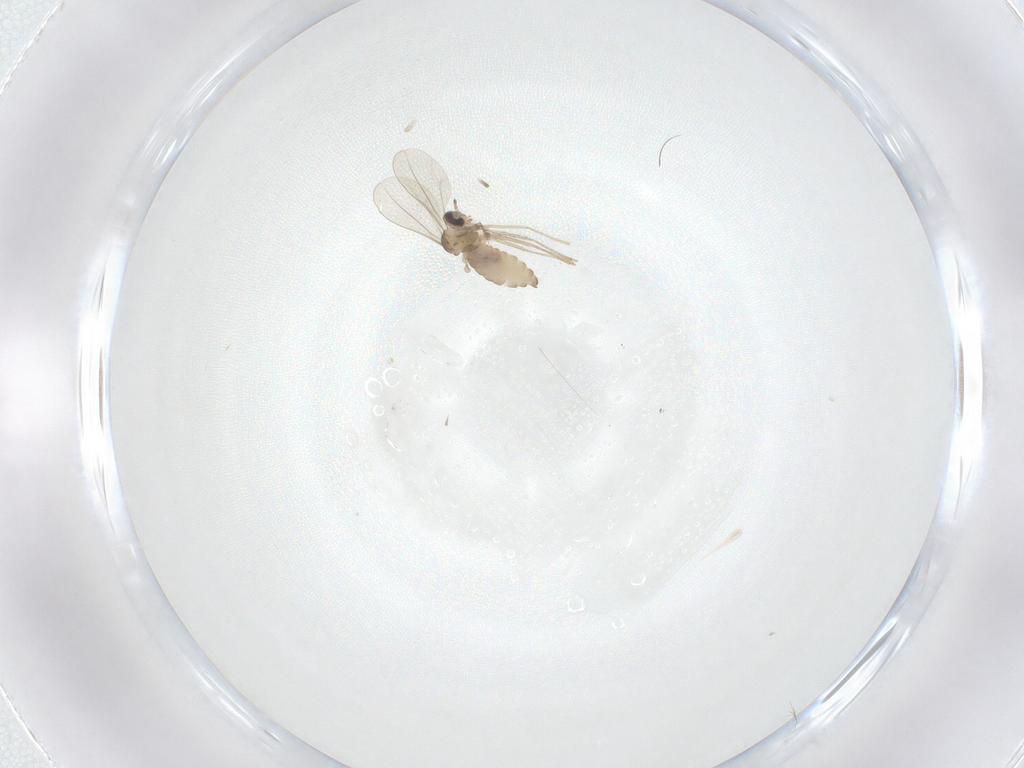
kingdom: Animalia
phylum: Arthropoda
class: Insecta
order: Diptera
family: Cecidomyiidae
